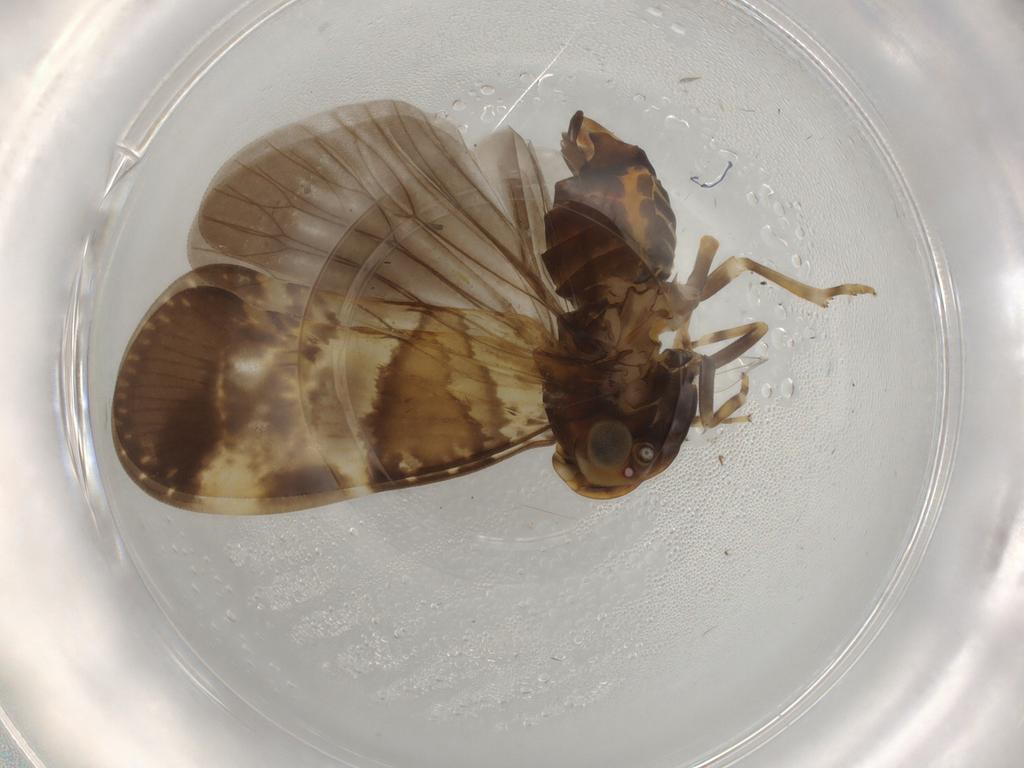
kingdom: Animalia
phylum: Arthropoda
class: Insecta
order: Hemiptera
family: Cixiidae
